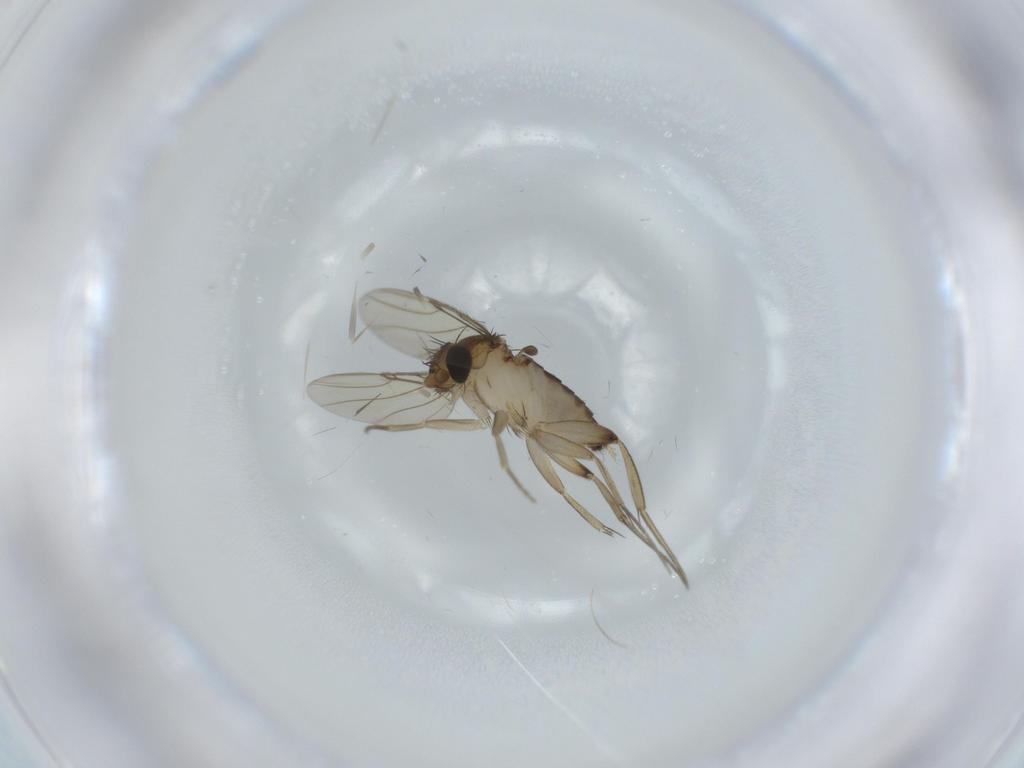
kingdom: Animalia
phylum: Arthropoda
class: Insecta
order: Diptera
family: Phoridae
